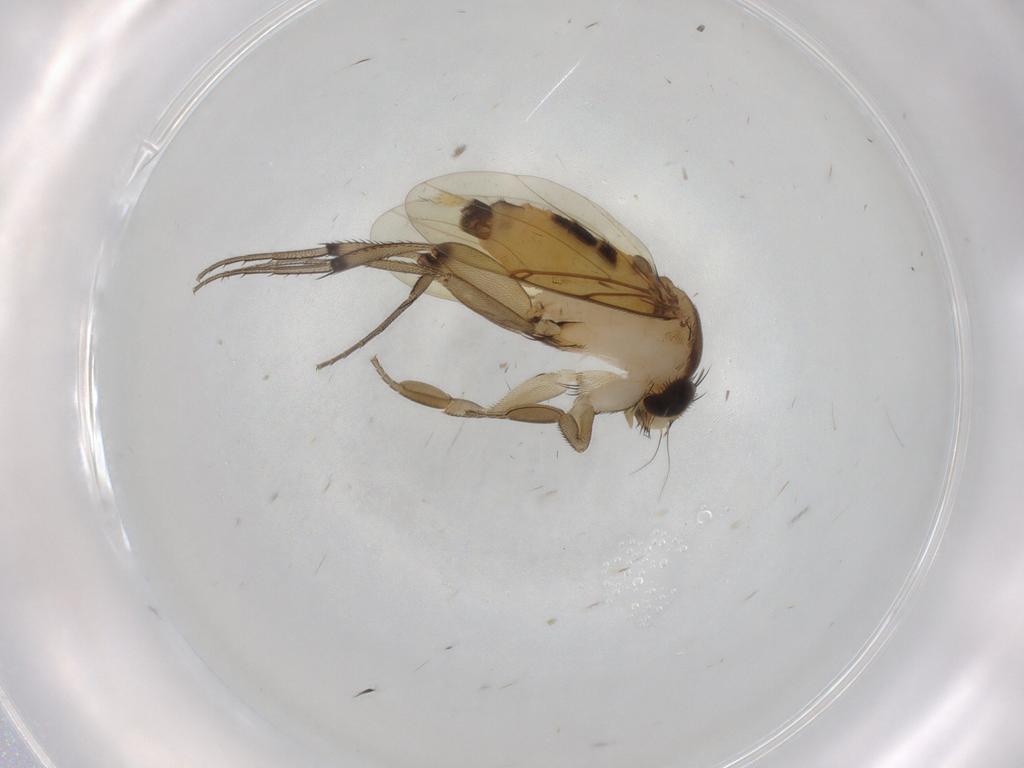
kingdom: Animalia
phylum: Arthropoda
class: Insecta
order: Diptera
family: Phoridae
